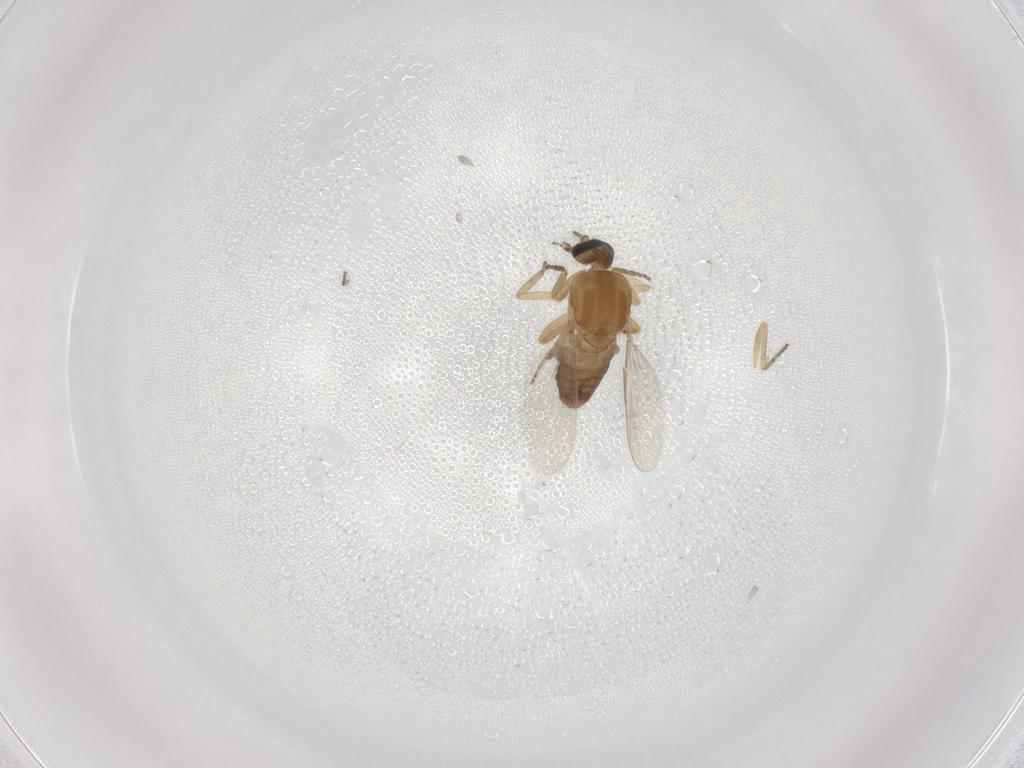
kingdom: Animalia
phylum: Arthropoda
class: Insecta
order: Diptera
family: Ceratopogonidae
